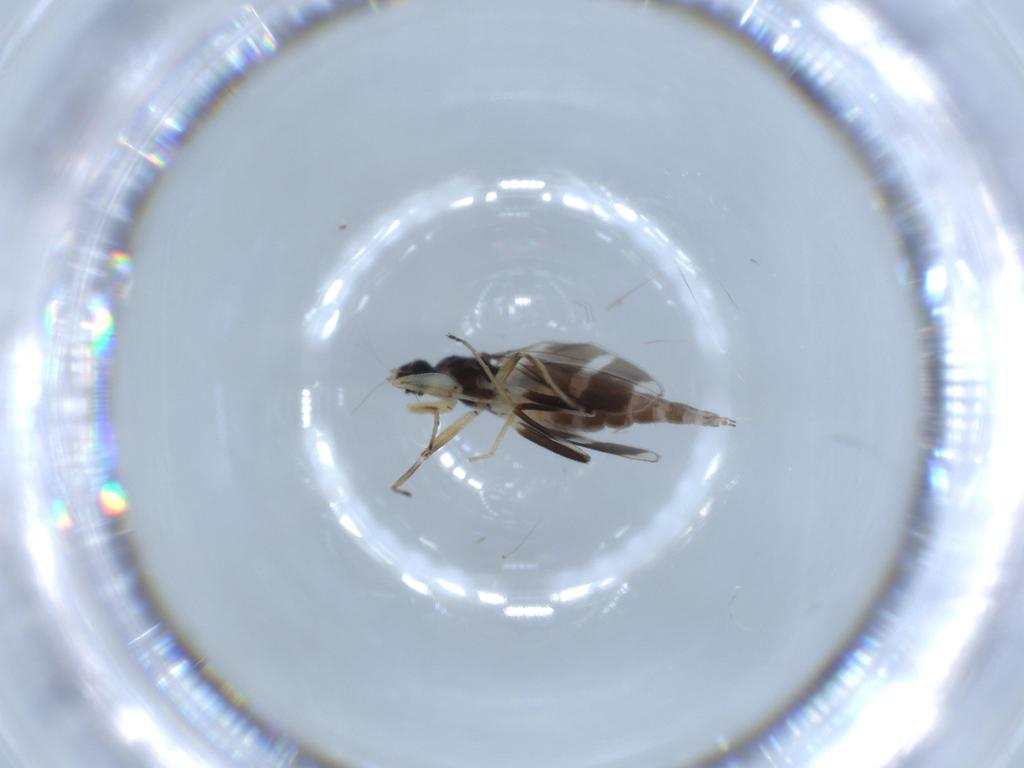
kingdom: Animalia
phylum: Arthropoda
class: Insecta
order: Diptera
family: Hybotidae
